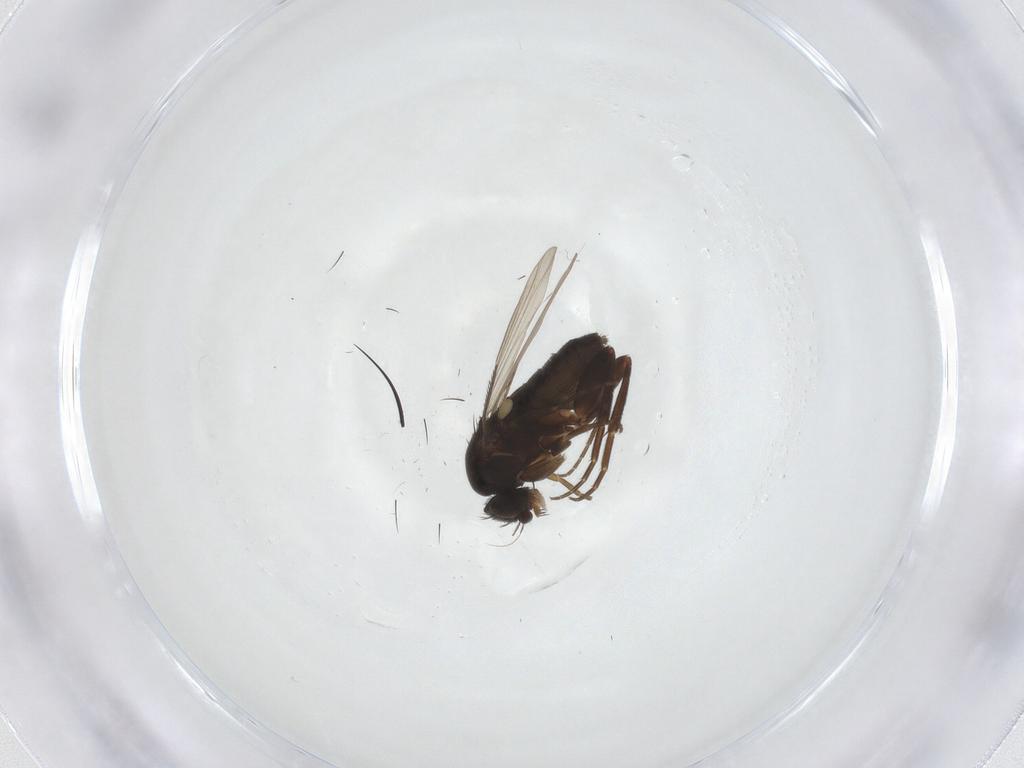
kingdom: Animalia
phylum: Arthropoda
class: Insecta
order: Diptera
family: Phoridae
